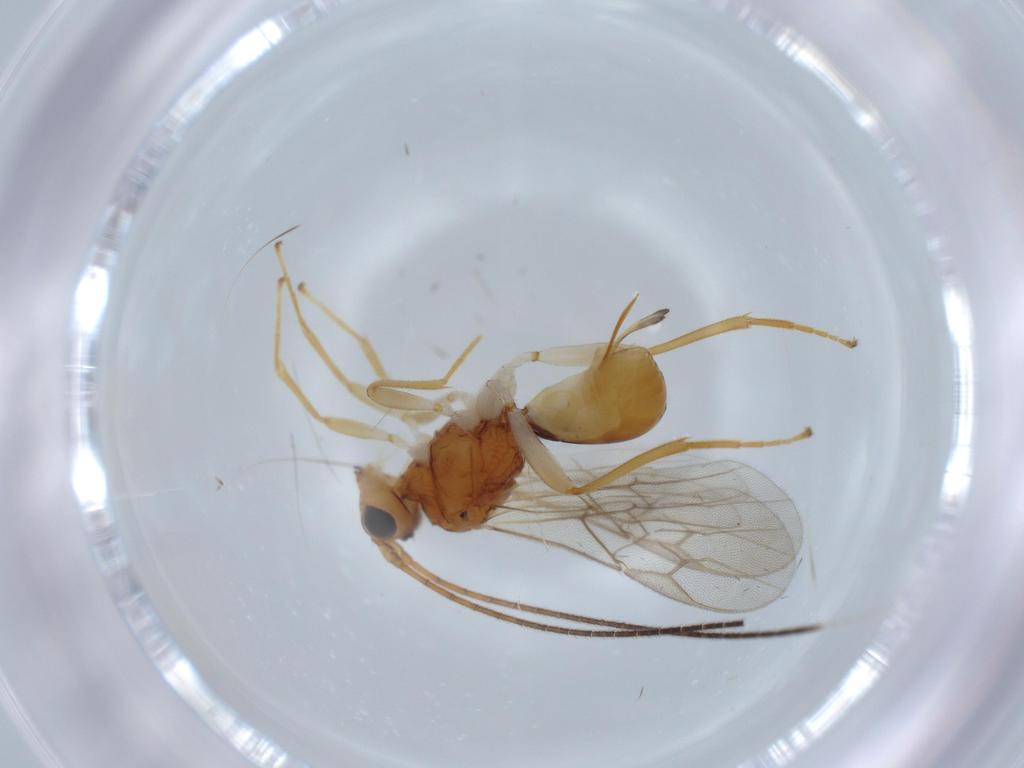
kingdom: Animalia
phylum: Arthropoda
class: Insecta
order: Hymenoptera
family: Braconidae
